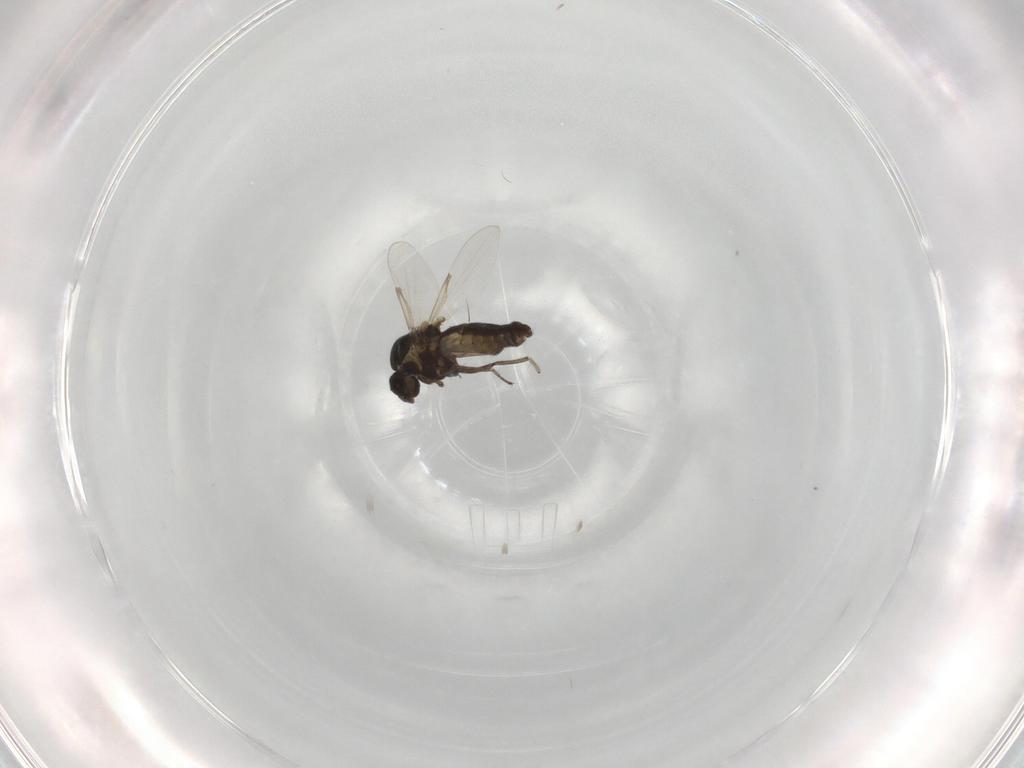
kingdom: Animalia
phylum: Arthropoda
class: Insecta
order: Diptera
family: Ceratopogonidae
